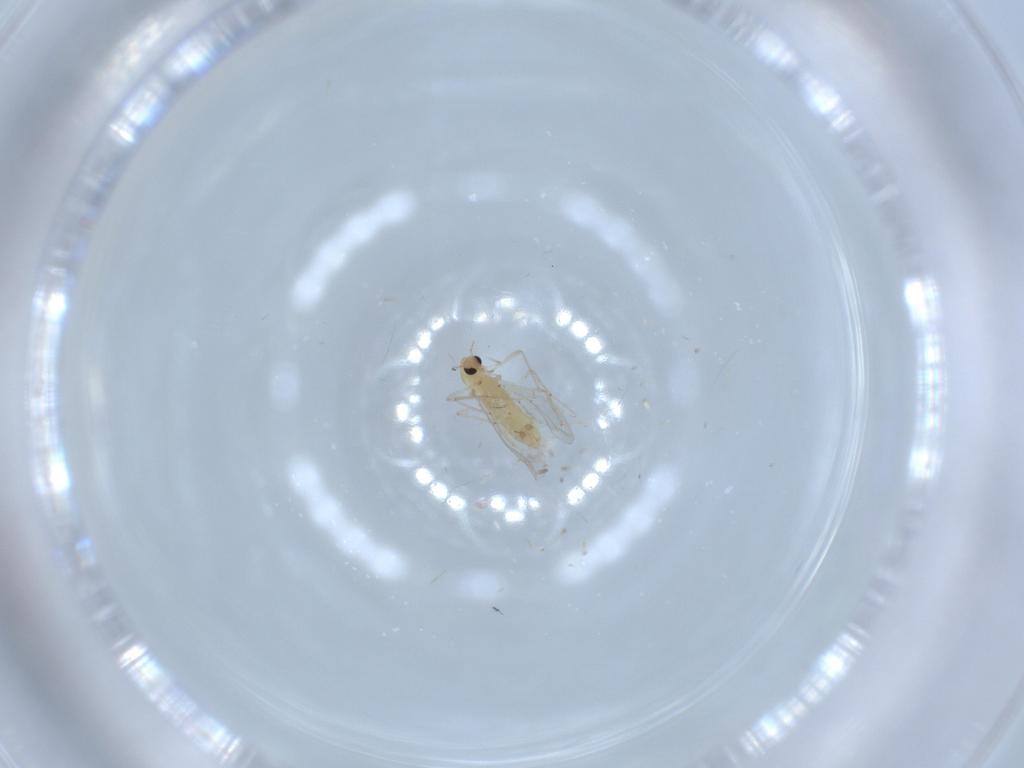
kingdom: Animalia
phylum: Arthropoda
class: Insecta
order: Diptera
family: Chironomidae
